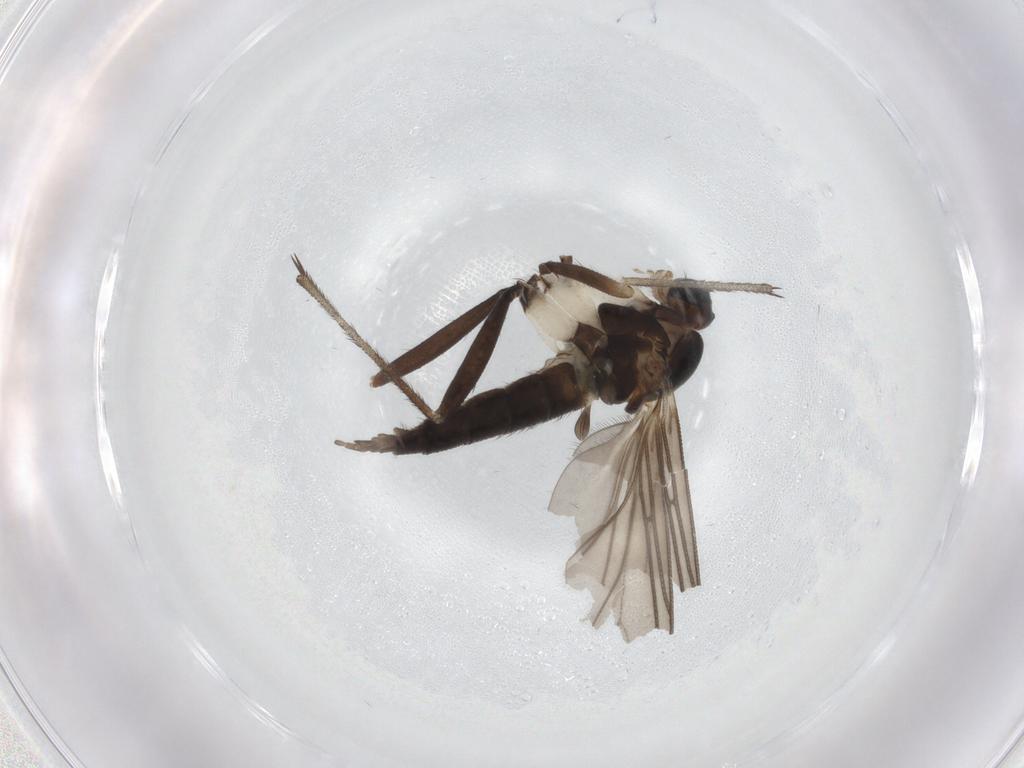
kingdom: Animalia
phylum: Arthropoda
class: Insecta
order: Diptera
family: Sciaridae
